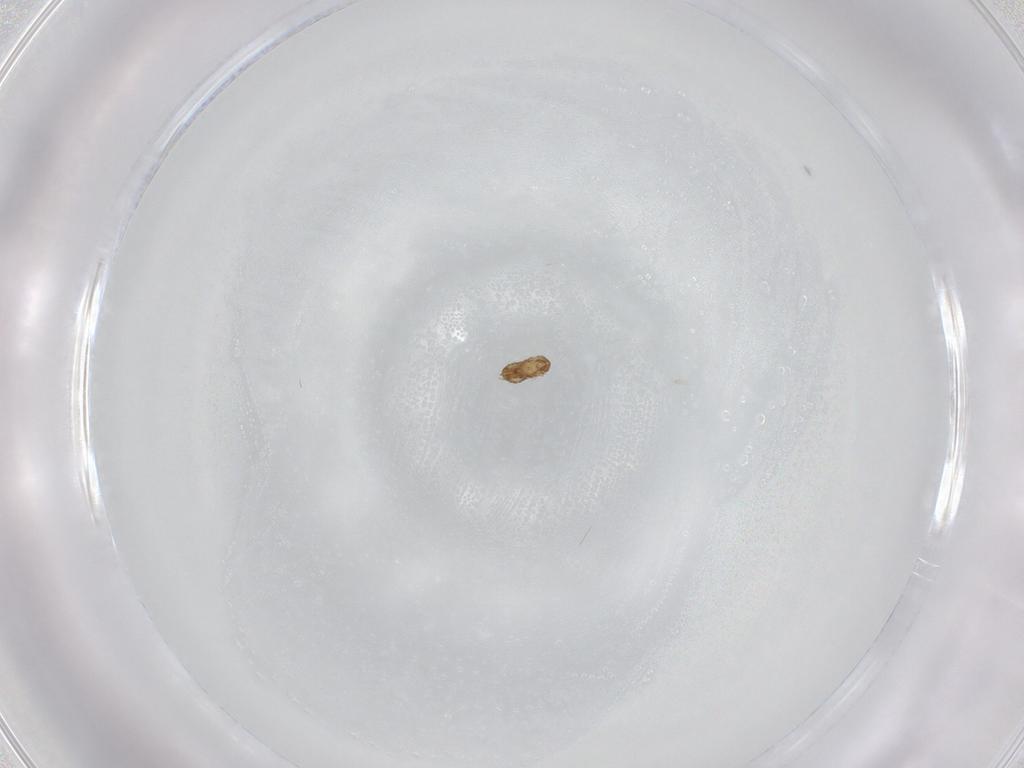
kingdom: Animalia
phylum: Arthropoda
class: Insecta
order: Hymenoptera
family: Trichogrammatidae
